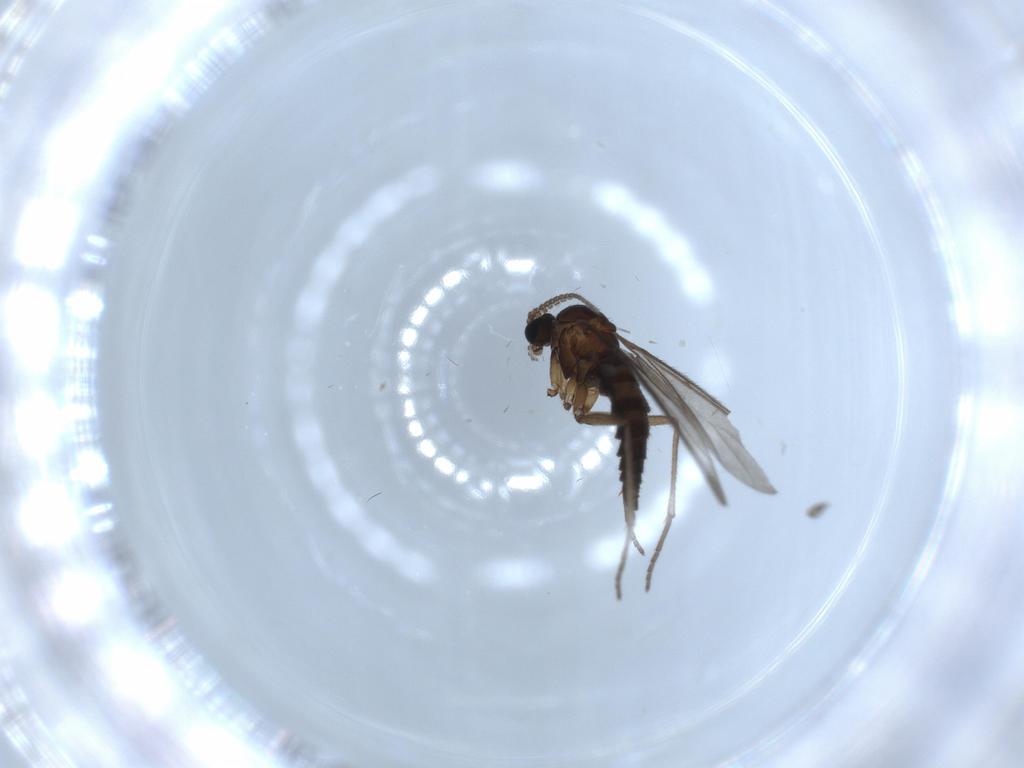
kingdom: Animalia
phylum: Arthropoda
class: Insecta
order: Diptera
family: Sciaridae
